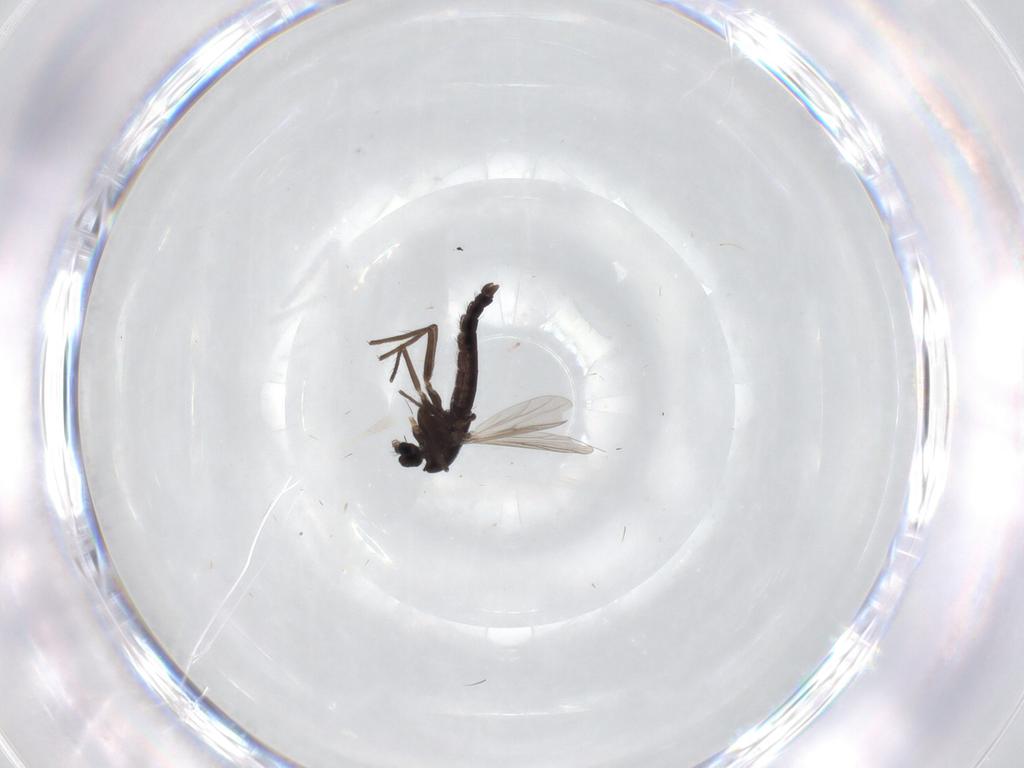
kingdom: Animalia
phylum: Arthropoda
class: Insecta
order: Diptera
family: Chironomidae
